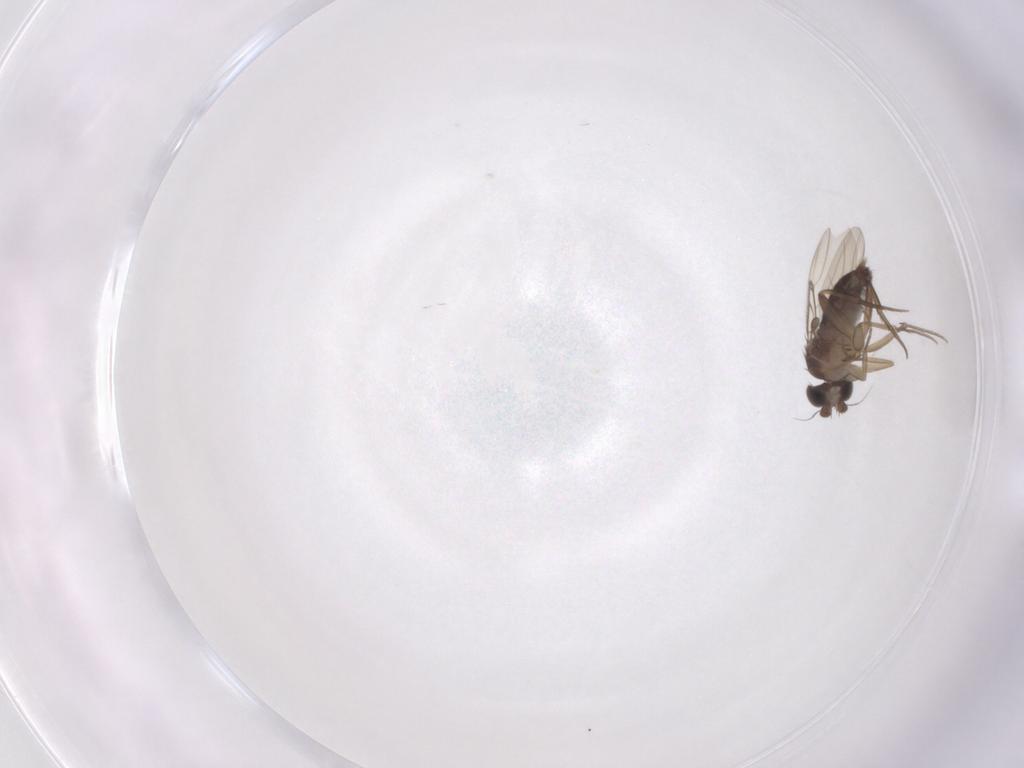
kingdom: Animalia
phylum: Arthropoda
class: Insecta
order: Diptera
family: Phoridae
